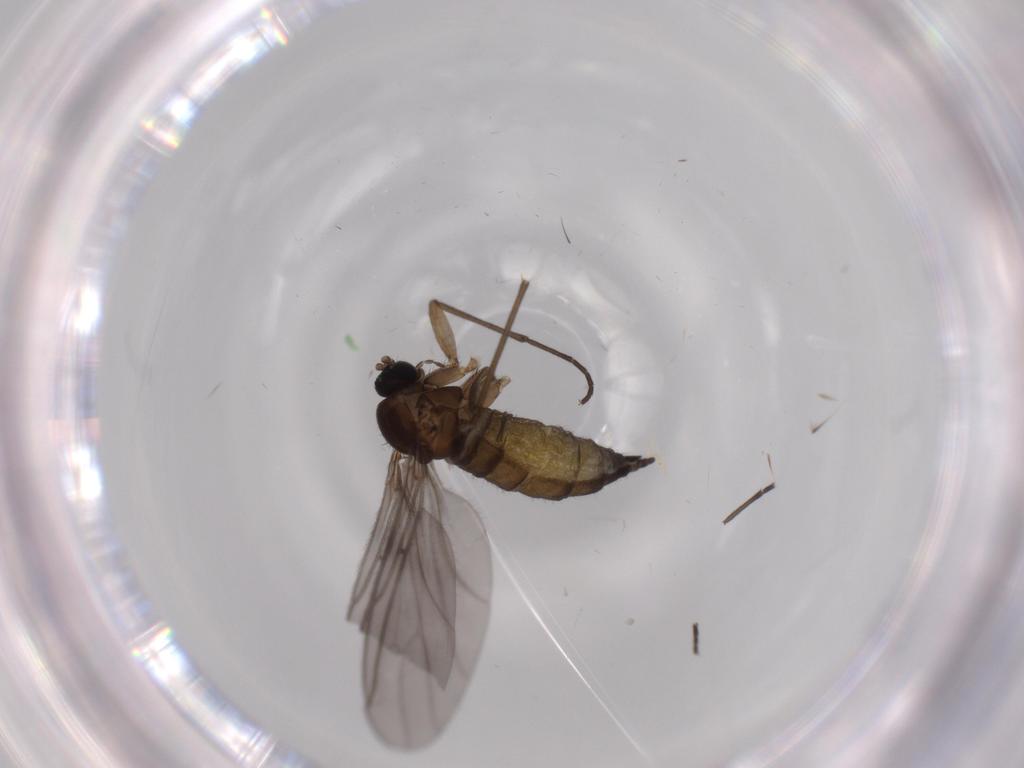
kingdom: Animalia
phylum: Arthropoda
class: Insecta
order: Diptera
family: Sciaridae
